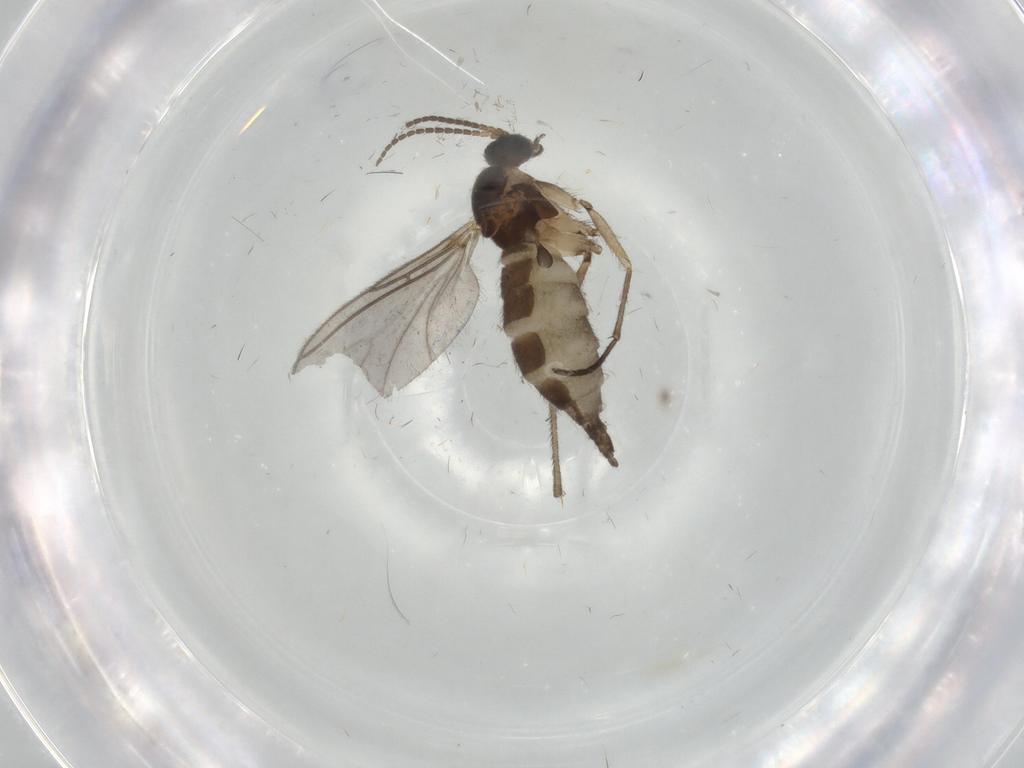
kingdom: Animalia
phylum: Arthropoda
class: Insecta
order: Diptera
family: Sciaridae
